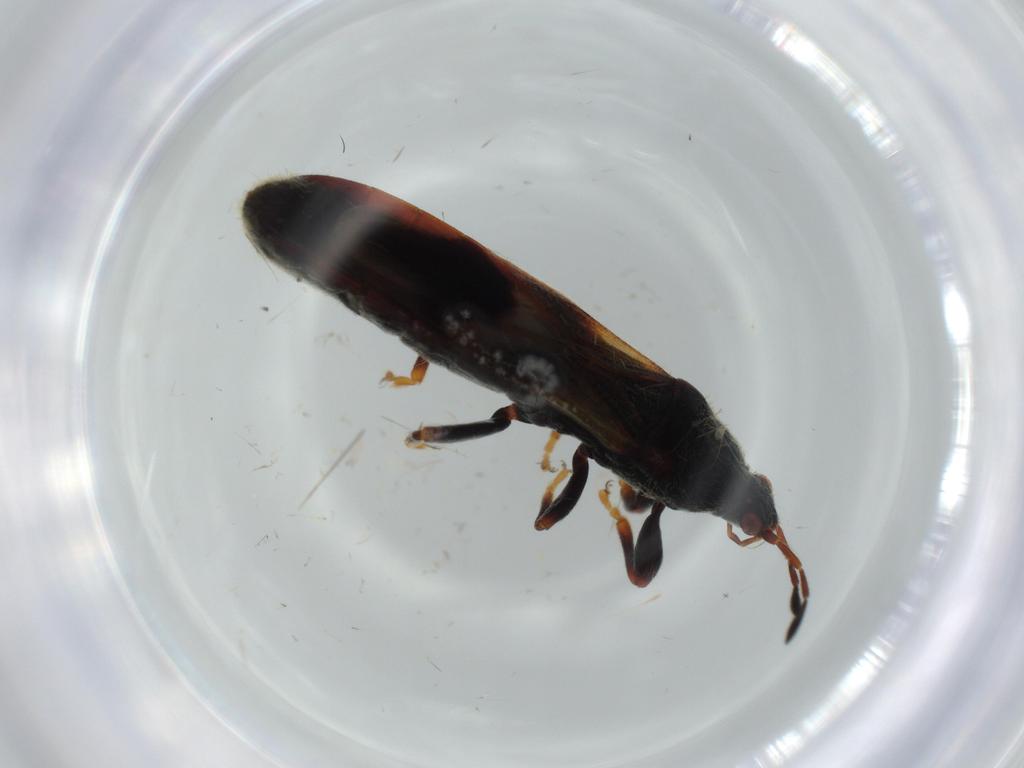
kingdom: Animalia
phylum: Arthropoda
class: Insecta
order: Hemiptera
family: Blissidae
